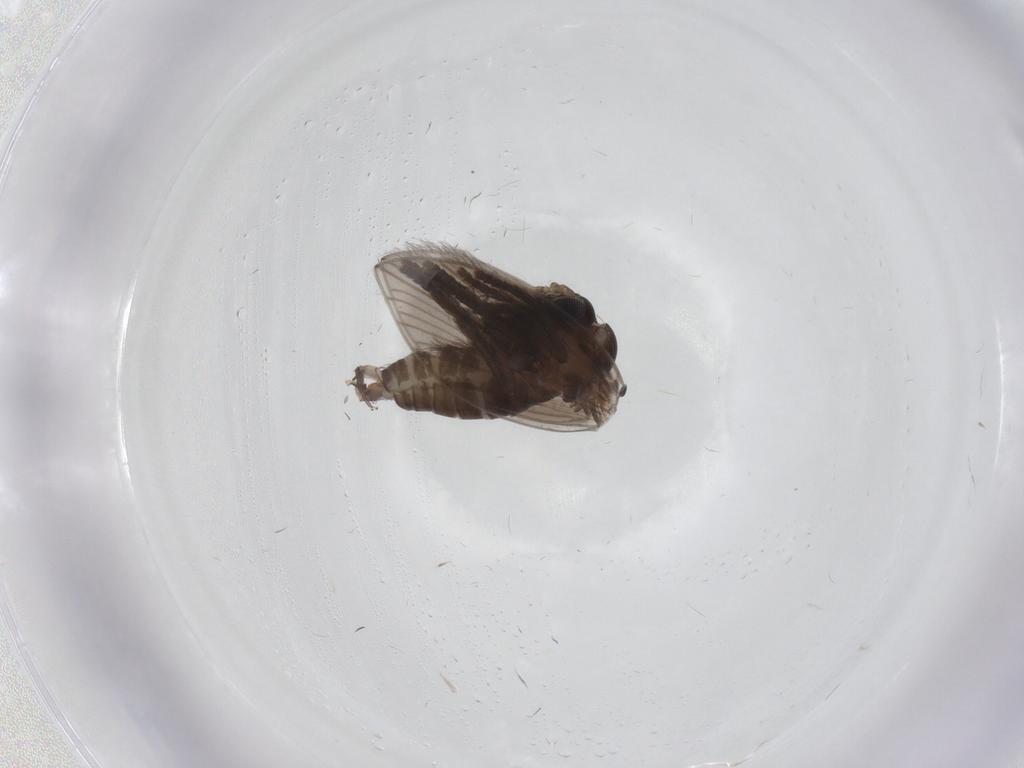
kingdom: Animalia
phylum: Arthropoda
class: Insecta
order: Diptera
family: Psychodidae
